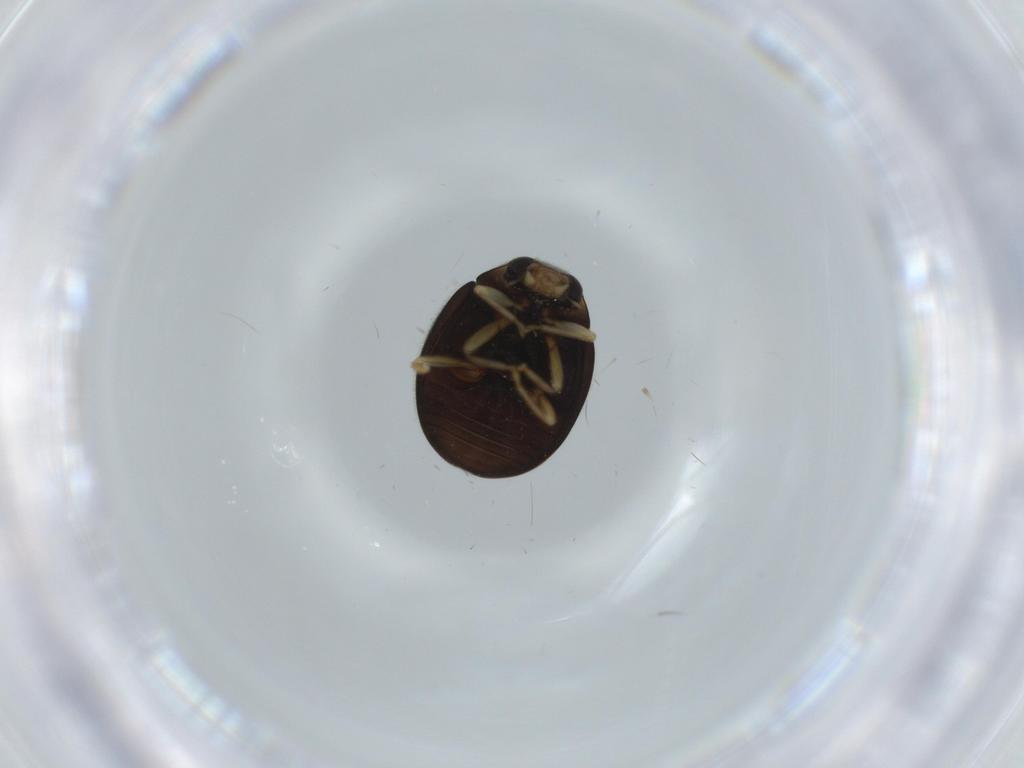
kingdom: Animalia
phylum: Arthropoda
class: Insecta
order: Coleoptera
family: Coccinellidae
